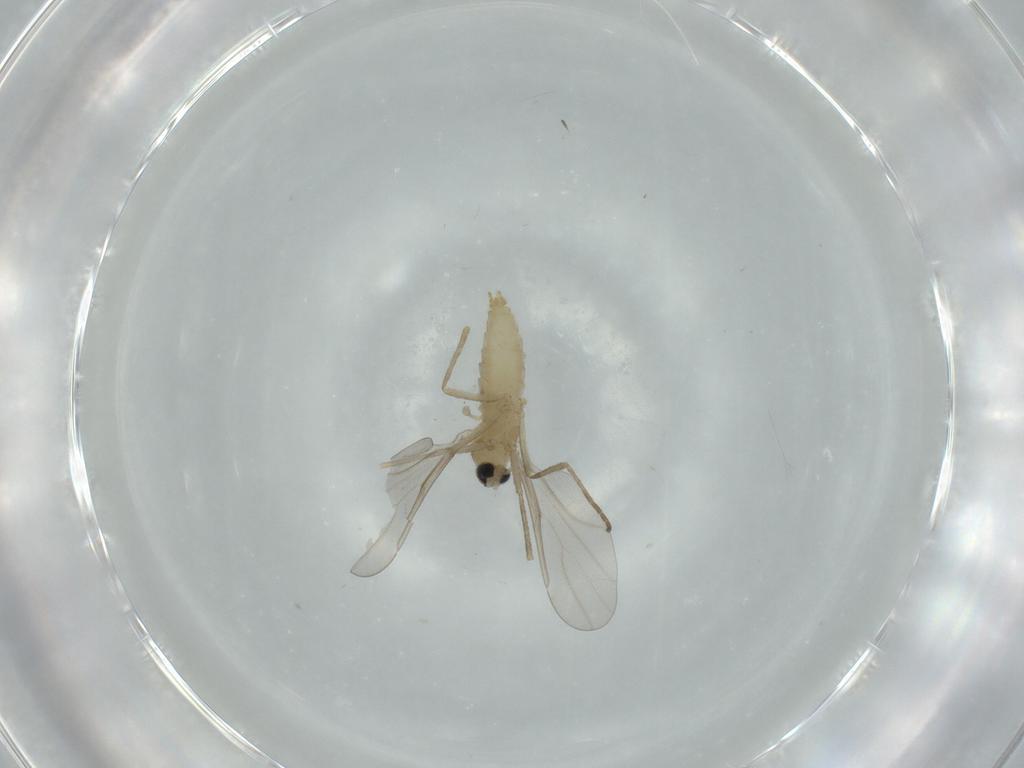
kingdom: Animalia
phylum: Arthropoda
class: Insecta
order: Diptera
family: Cecidomyiidae
